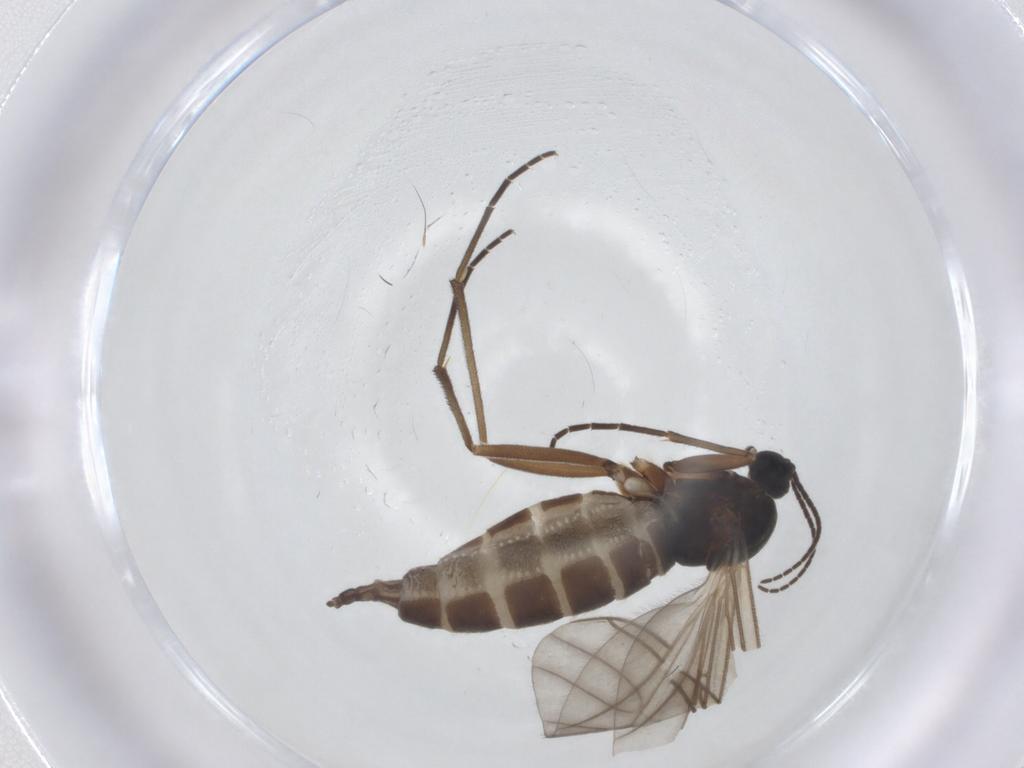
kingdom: Animalia
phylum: Arthropoda
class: Insecta
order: Diptera
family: Sciaridae
